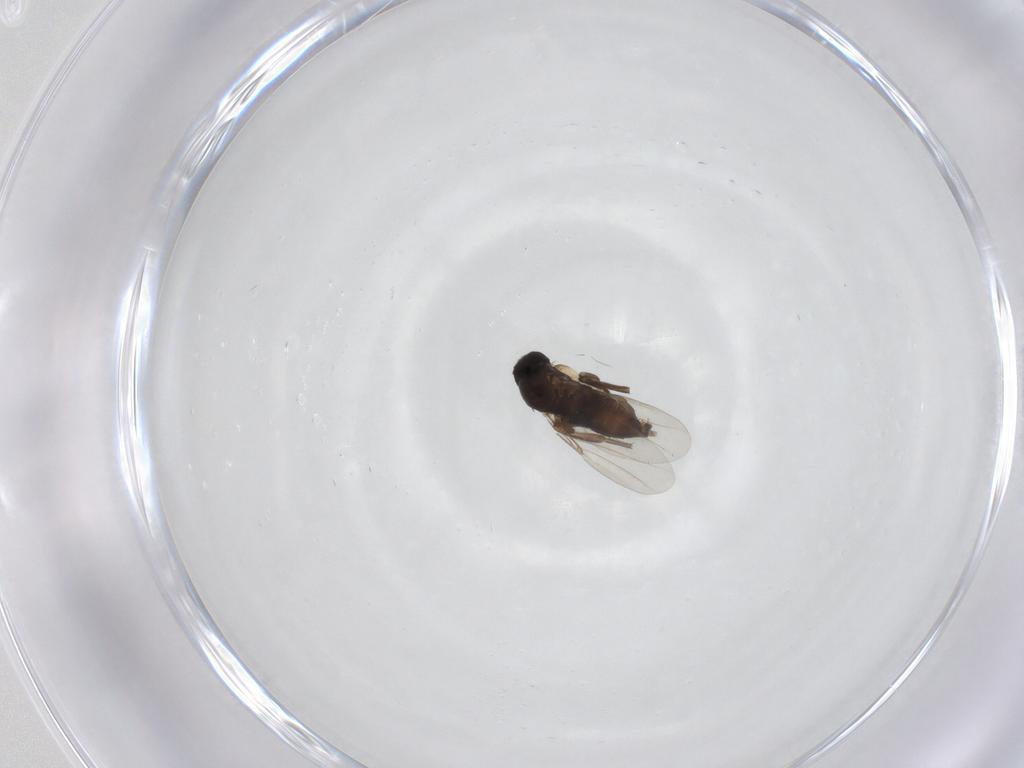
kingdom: Animalia
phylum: Arthropoda
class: Insecta
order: Diptera
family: Phoridae
